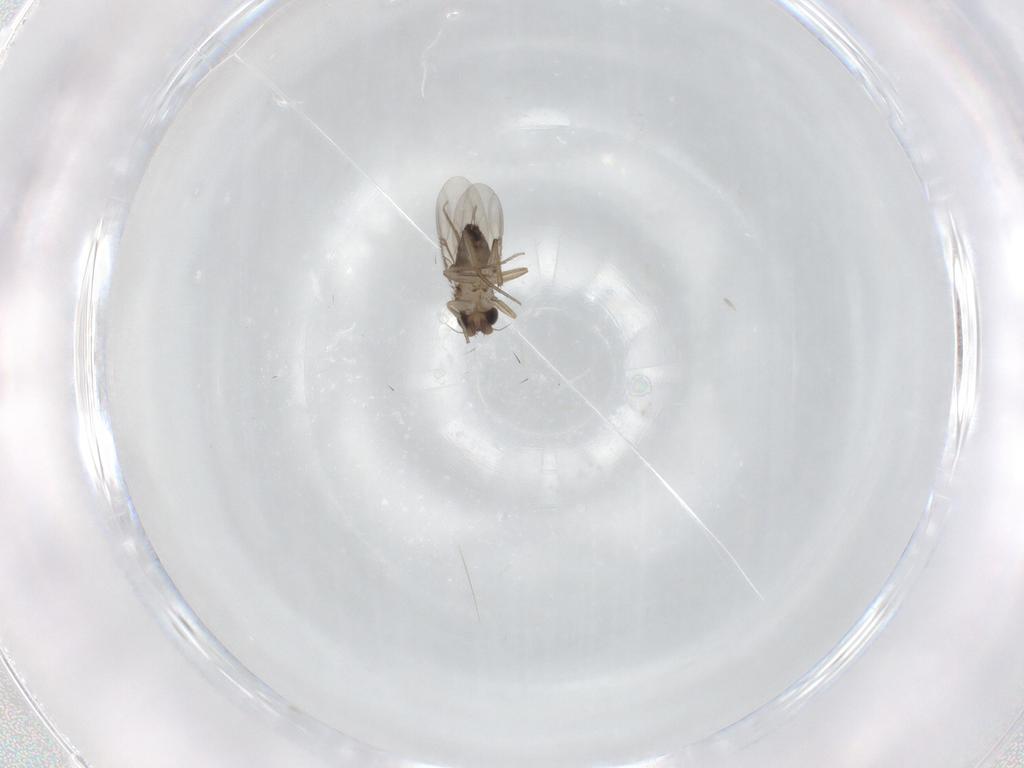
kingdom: Animalia
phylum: Arthropoda
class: Insecta
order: Diptera
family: Phoridae
